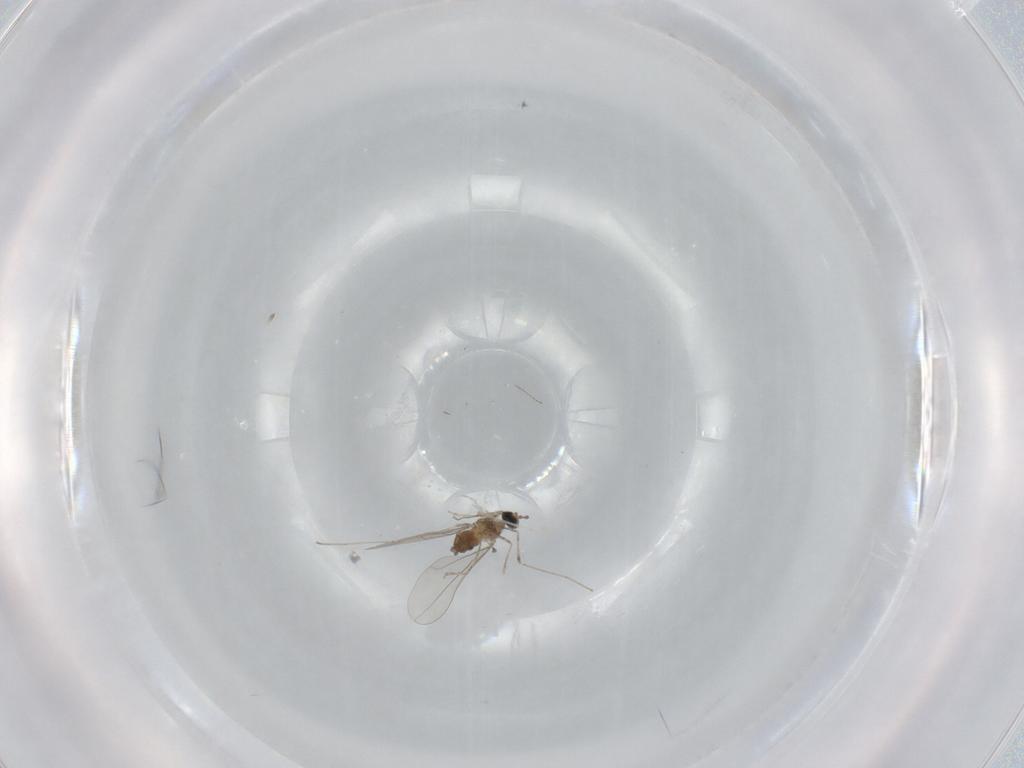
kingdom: Animalia
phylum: Arthropoda
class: Insecta
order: Diptera
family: Cecidomyiidae
